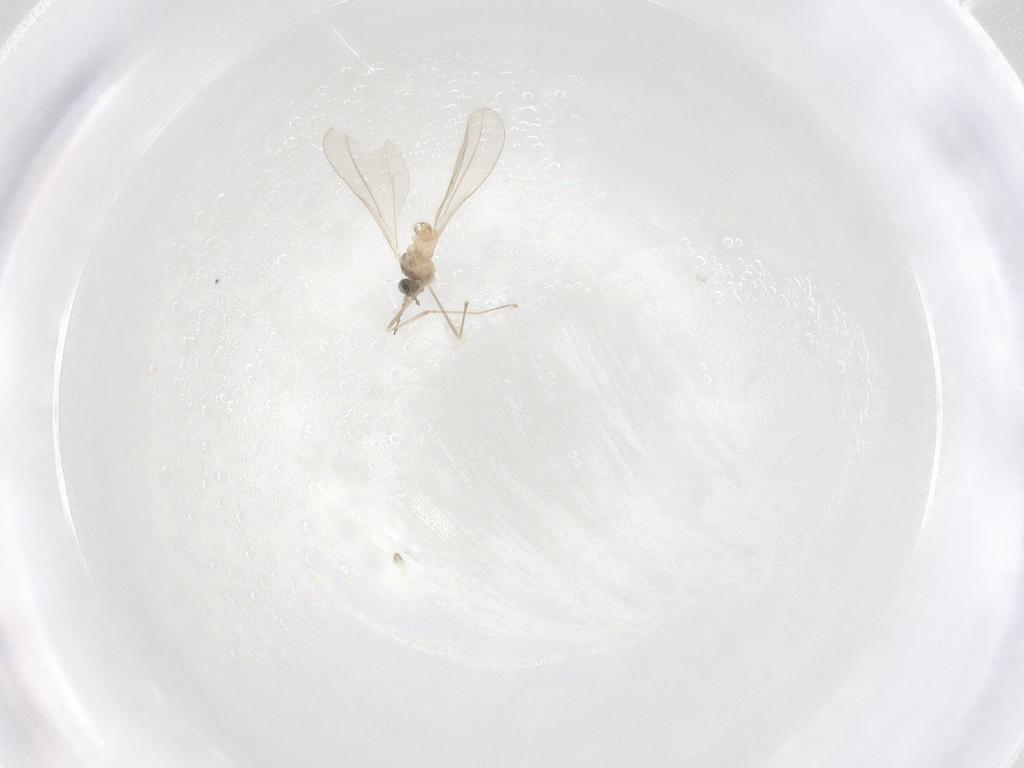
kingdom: Animalia
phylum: Arthropoda
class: Insecta
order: Diptera
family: Cecidomyiidae
